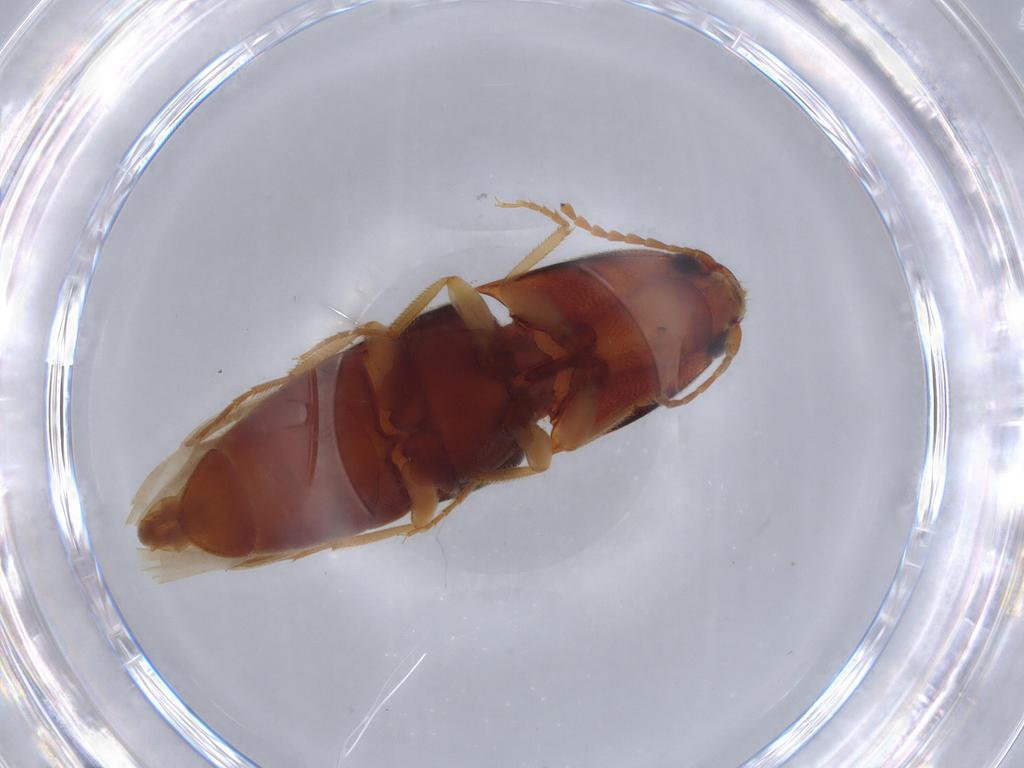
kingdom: Animalia
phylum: Arthropoda
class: Insecta
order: Coleoptera
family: Elateridae
